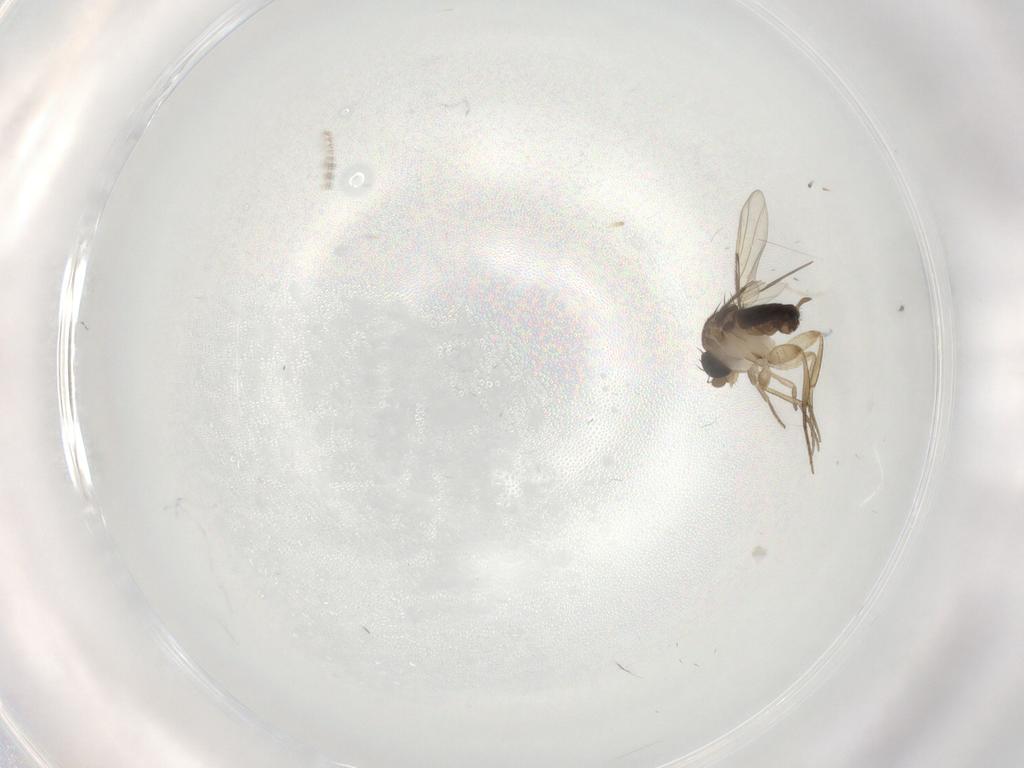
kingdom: Animalia
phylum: Arthropoda
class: Insecta
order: Diptera
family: Ceratopogonidae
